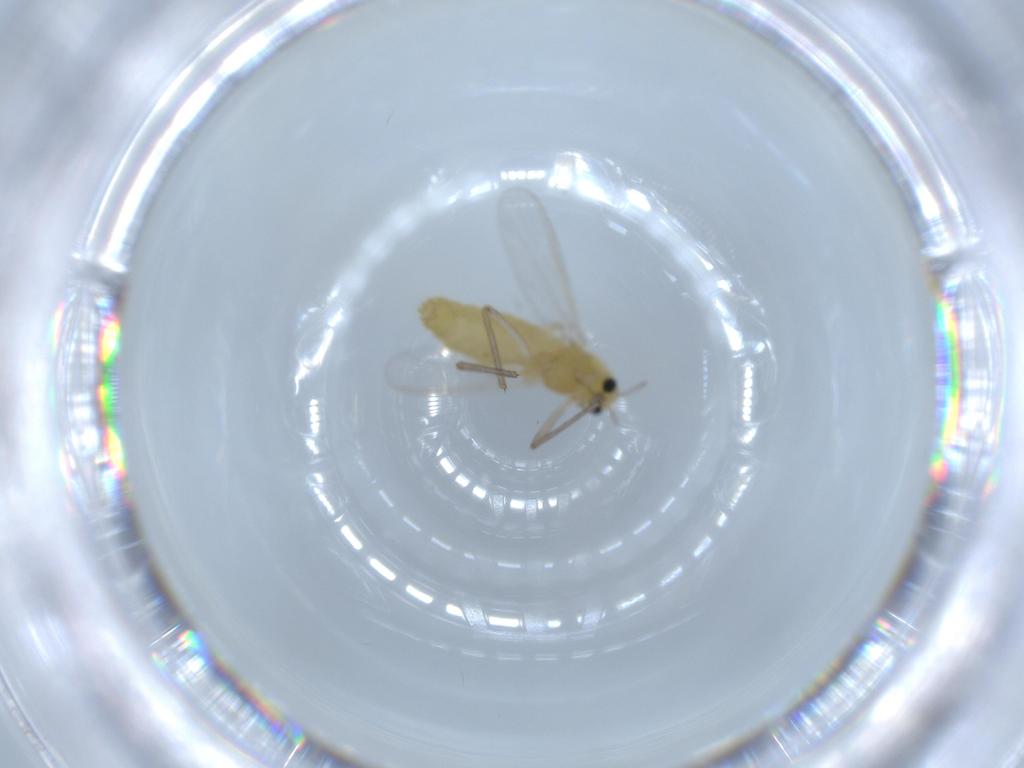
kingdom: Animalia
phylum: Arthropoda
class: Insecta
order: Diptera
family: Chironomidae
